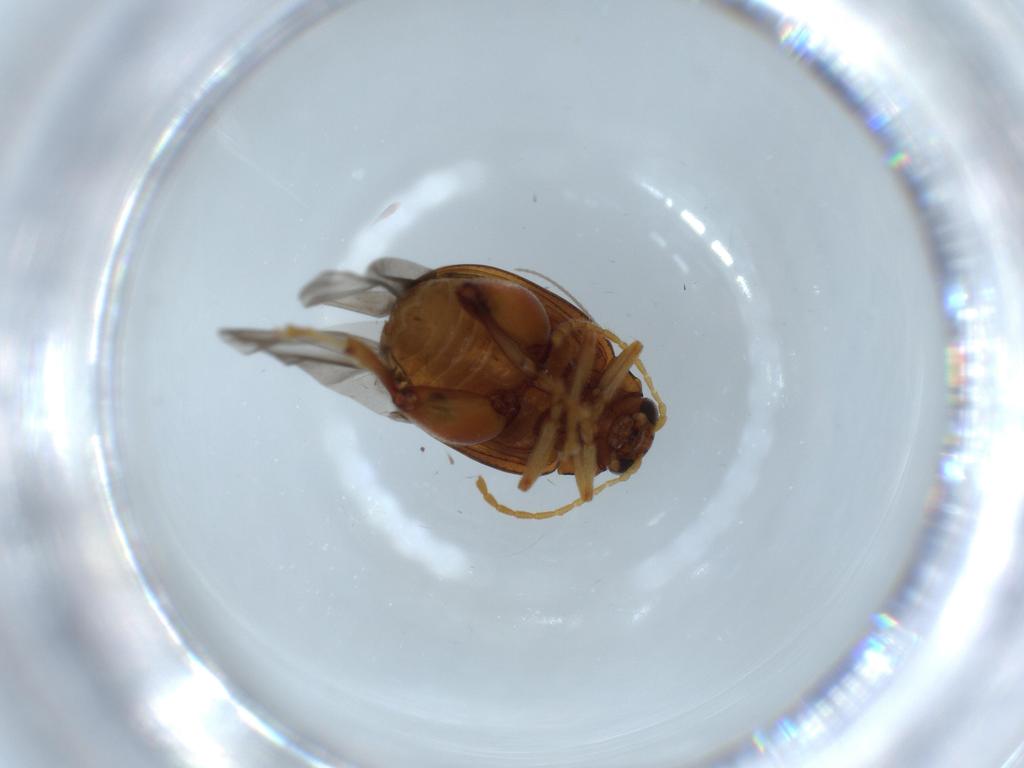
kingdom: Animalia
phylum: Arthropoda
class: Insecta
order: Coleoptera
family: Chrysomelidae
